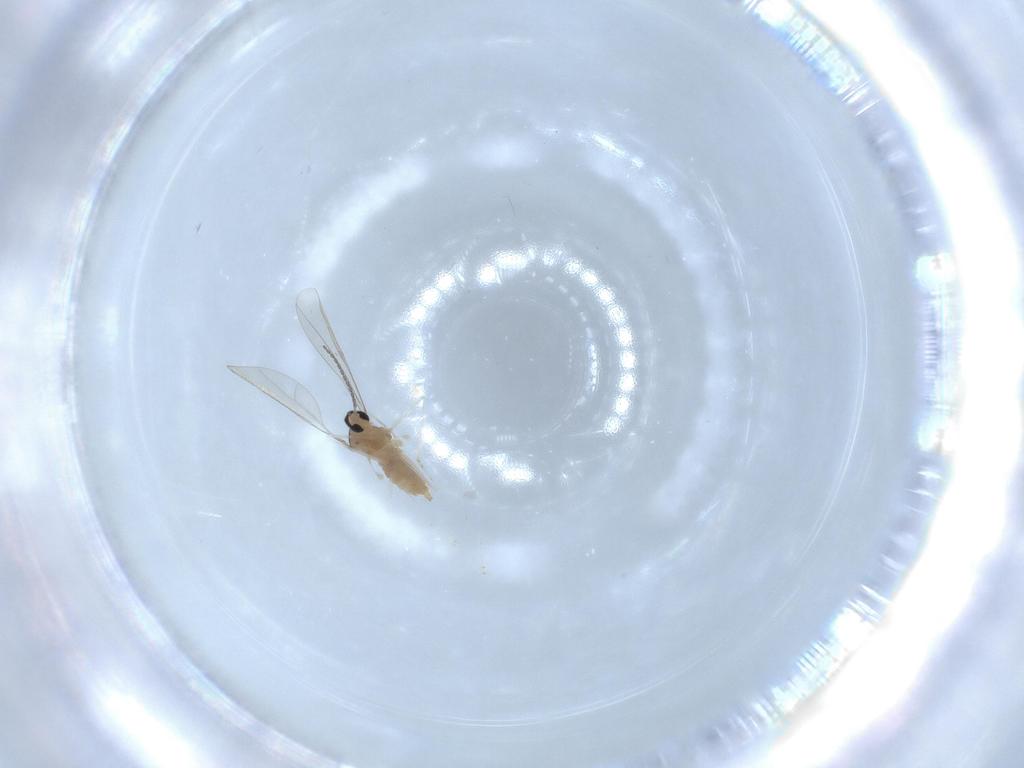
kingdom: Animalia
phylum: Arthropoda
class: Insecta
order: Diptera
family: Cecidomyiidae
